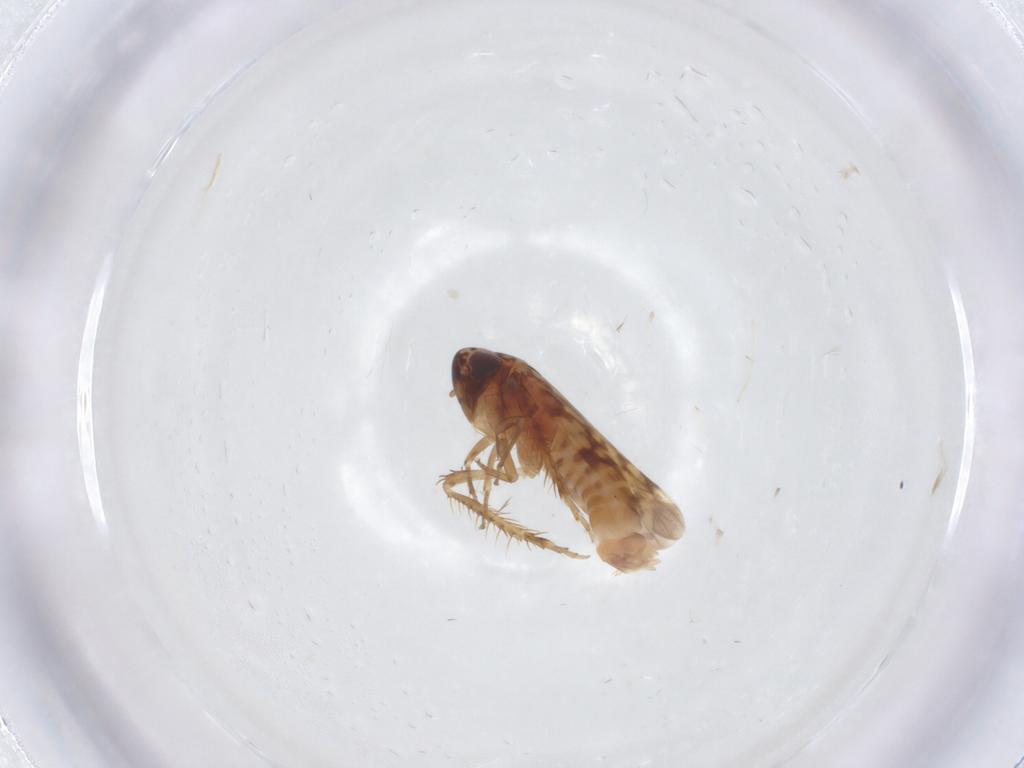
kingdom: Animalia
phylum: Arthropoda
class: Insecta
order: Hemiptera
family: Cicadellidae
